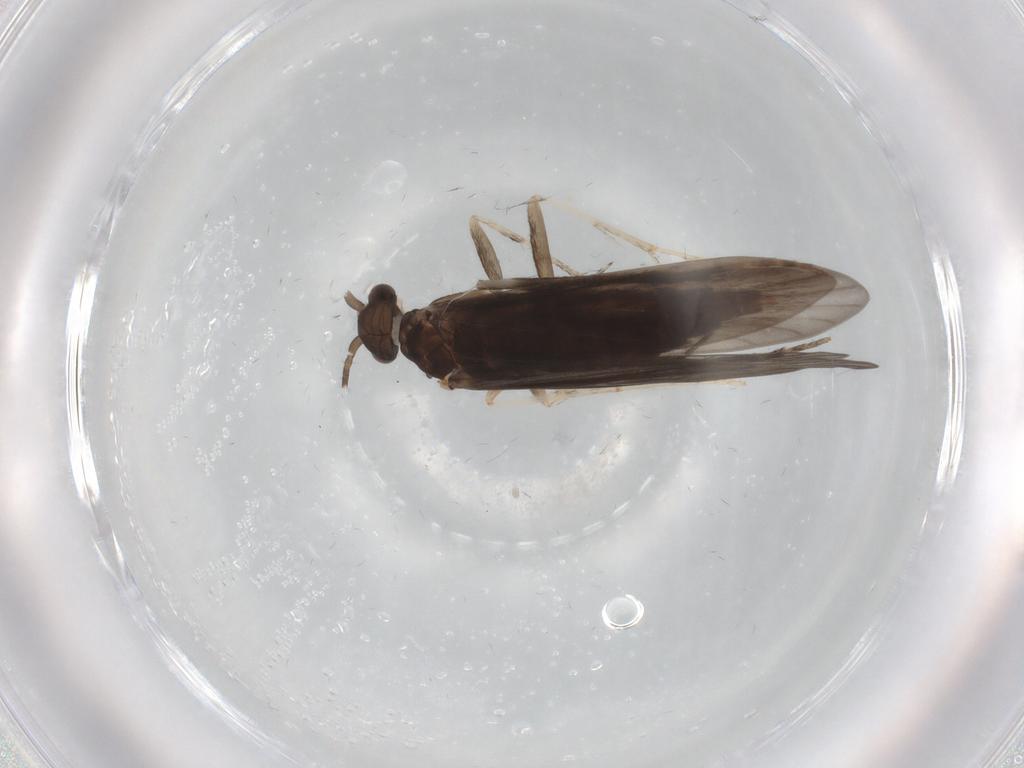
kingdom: Animalia
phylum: Arthropoda
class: Insecta
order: Trichoptera
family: Xiphocentronidae
